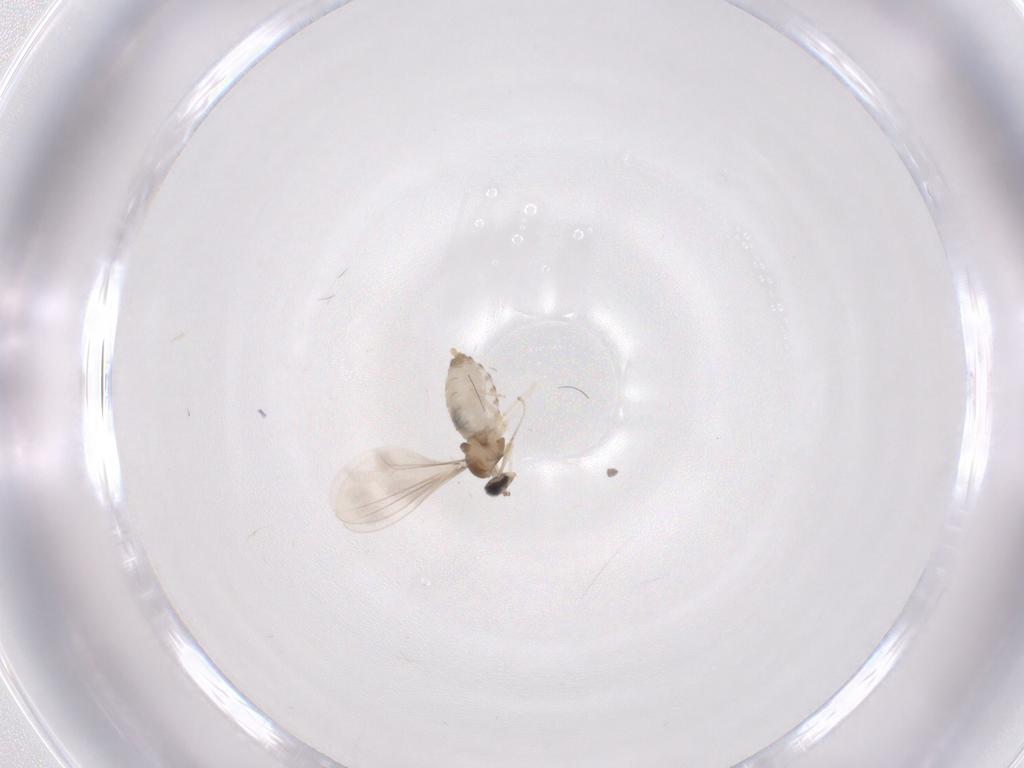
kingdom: Animalia
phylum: Arthropoda
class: Insecta
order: Diptera
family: Cecidomyiidae
